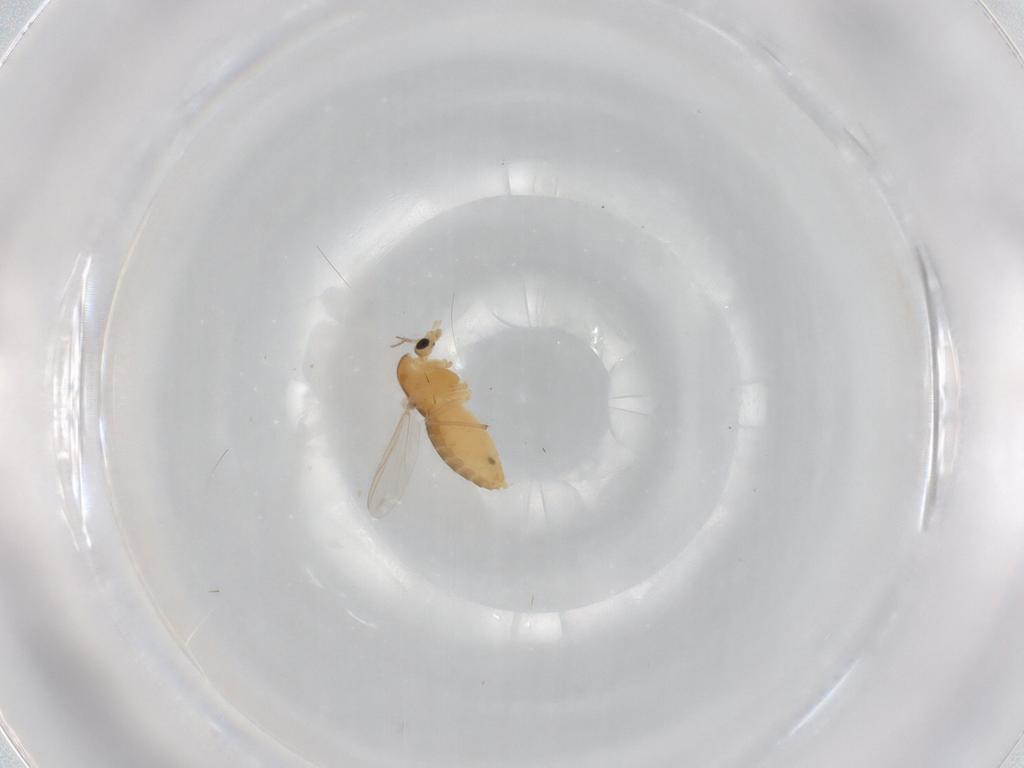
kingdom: Animalia
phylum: Arthropoda
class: Insecta
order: Diptera
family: Chironomidae
